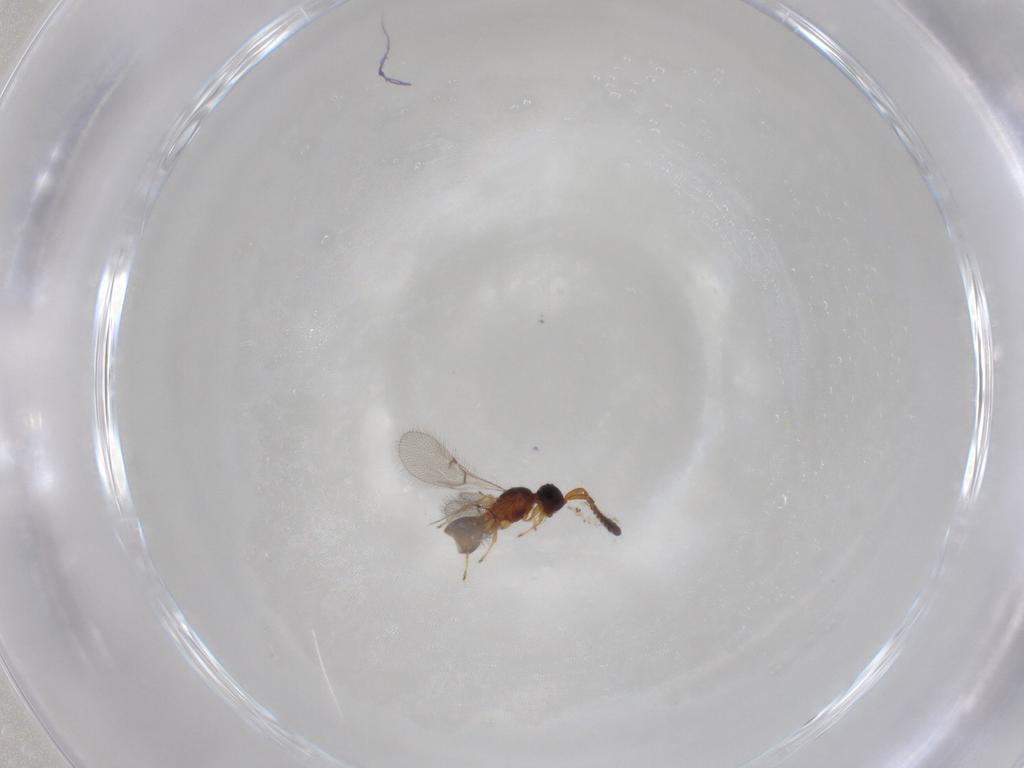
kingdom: Animalia
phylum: Arthropoda
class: Insecta
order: Hymenoptera
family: Diapriidae
